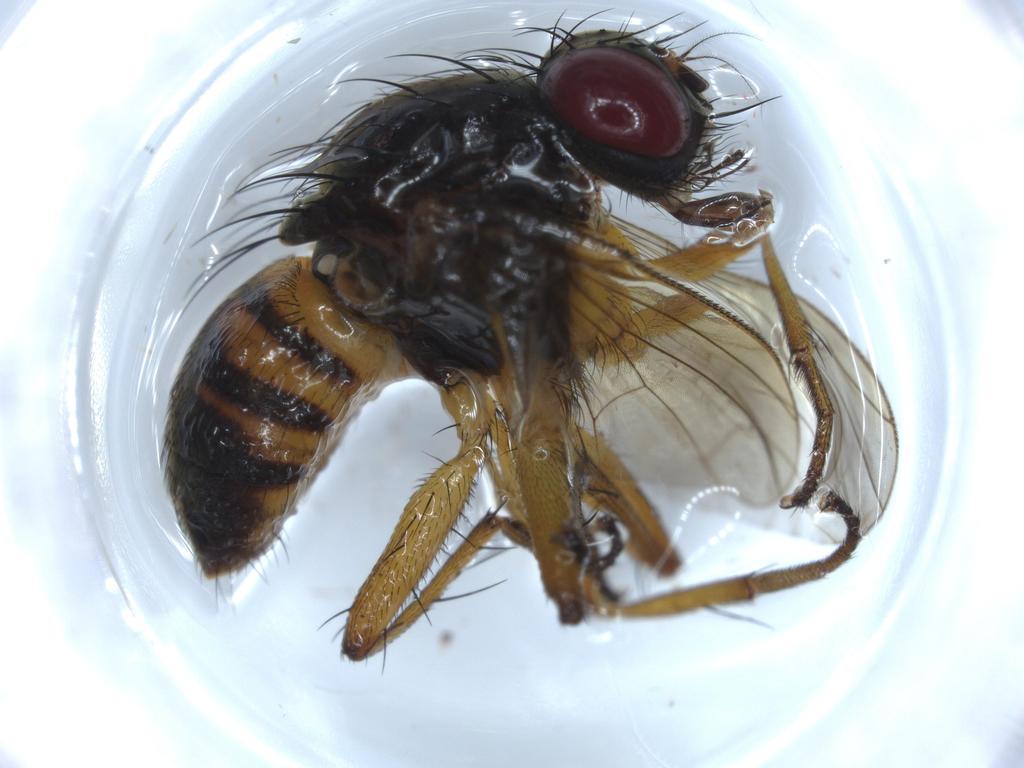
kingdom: Animalia
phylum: Arthropoda
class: Insecta
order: Diptera
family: Muscidae
